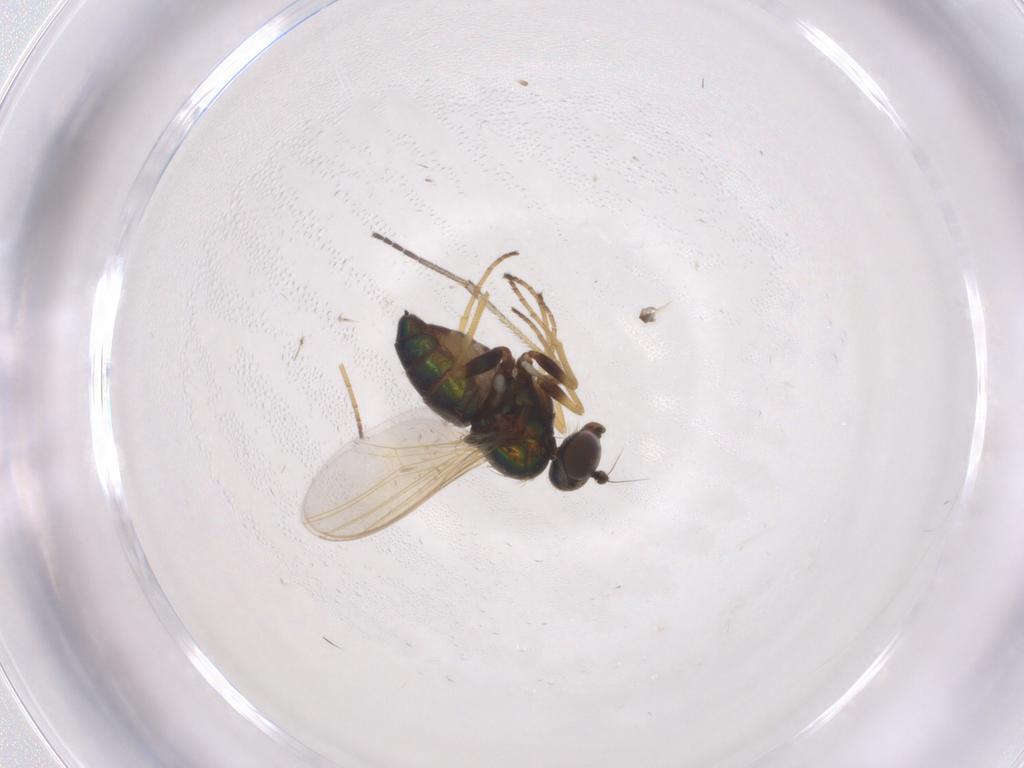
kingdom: Animalia
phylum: Arthropoda
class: Insecta
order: Diptera
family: Dolichopodidae
